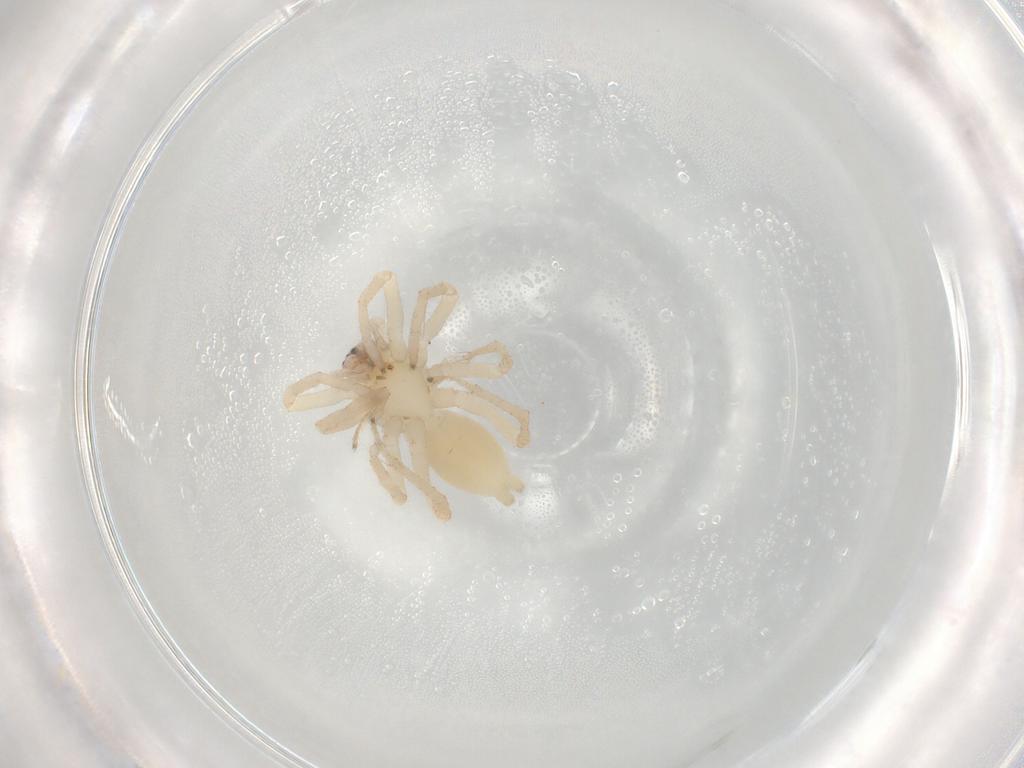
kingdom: Animalia
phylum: Arthropoda
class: Arachnida
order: Araneae
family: Clubionidae
